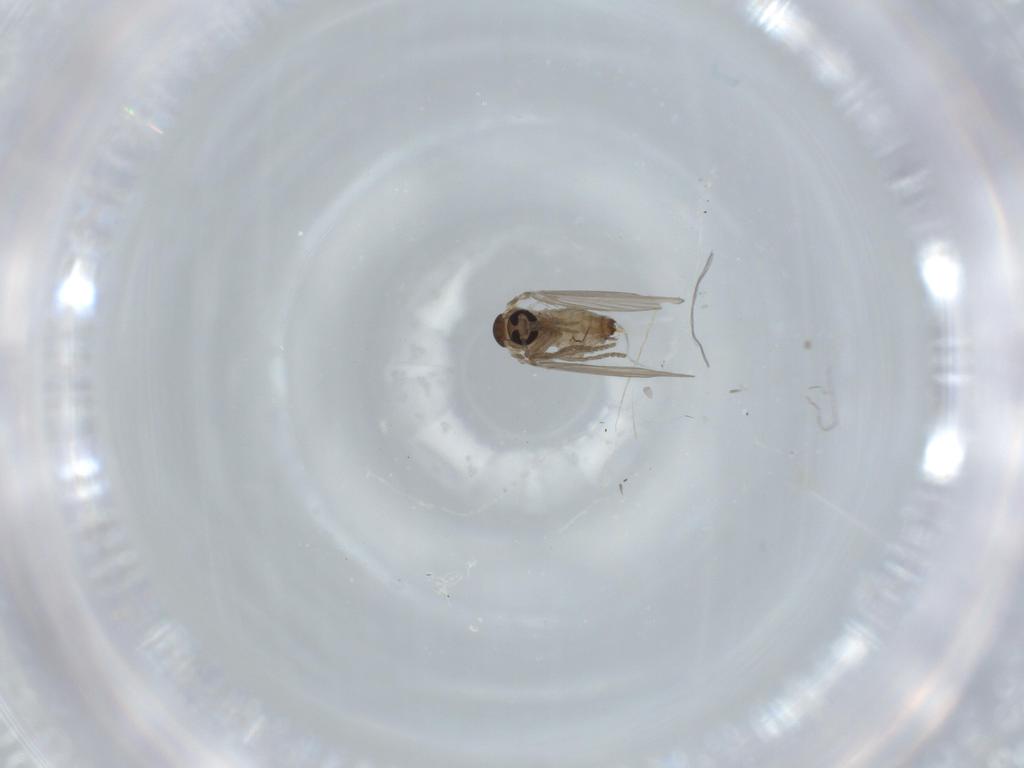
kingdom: Animalia
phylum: Arthropoda
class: Insecta
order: Diptera
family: Psychodidae
